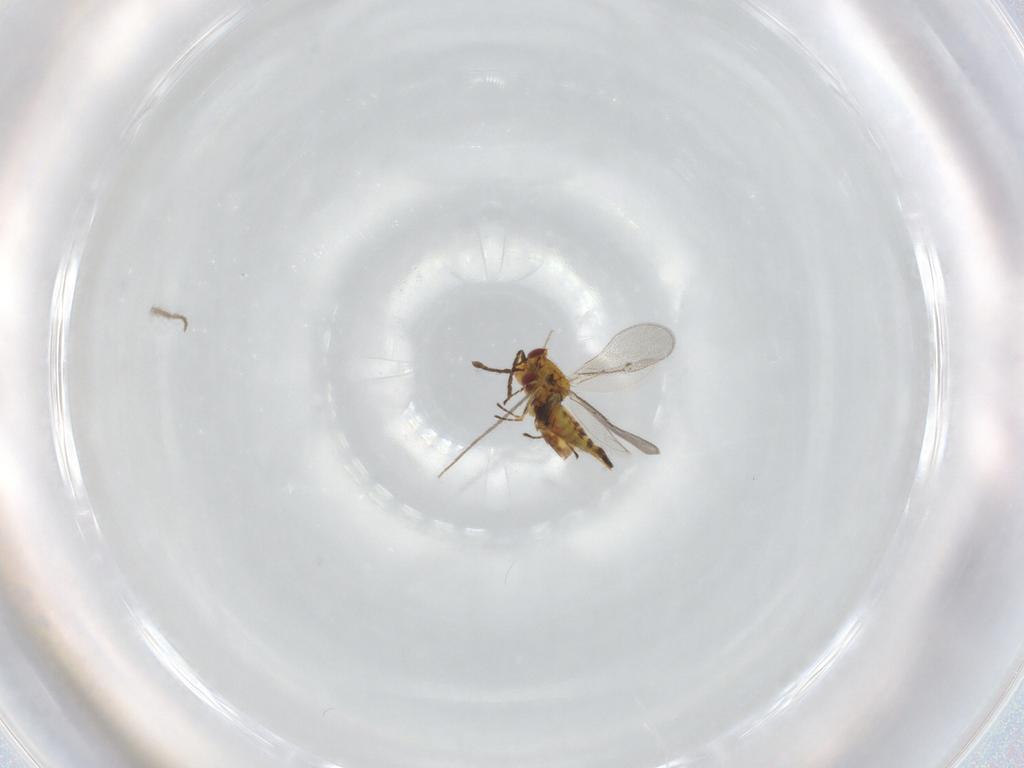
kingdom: Animalia
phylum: Arthropoda
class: Insecta
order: Hymenoptera
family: Eulophidae
